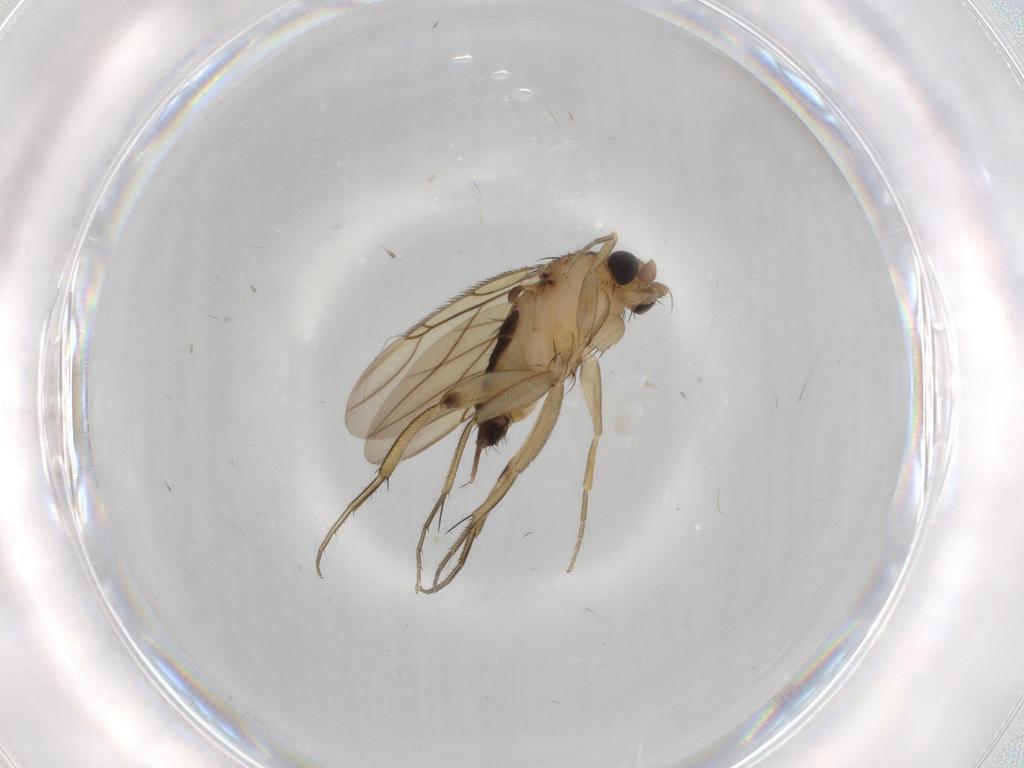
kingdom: Animalia
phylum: Arthropoda
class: Insecta
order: Diptera
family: Phoridae
